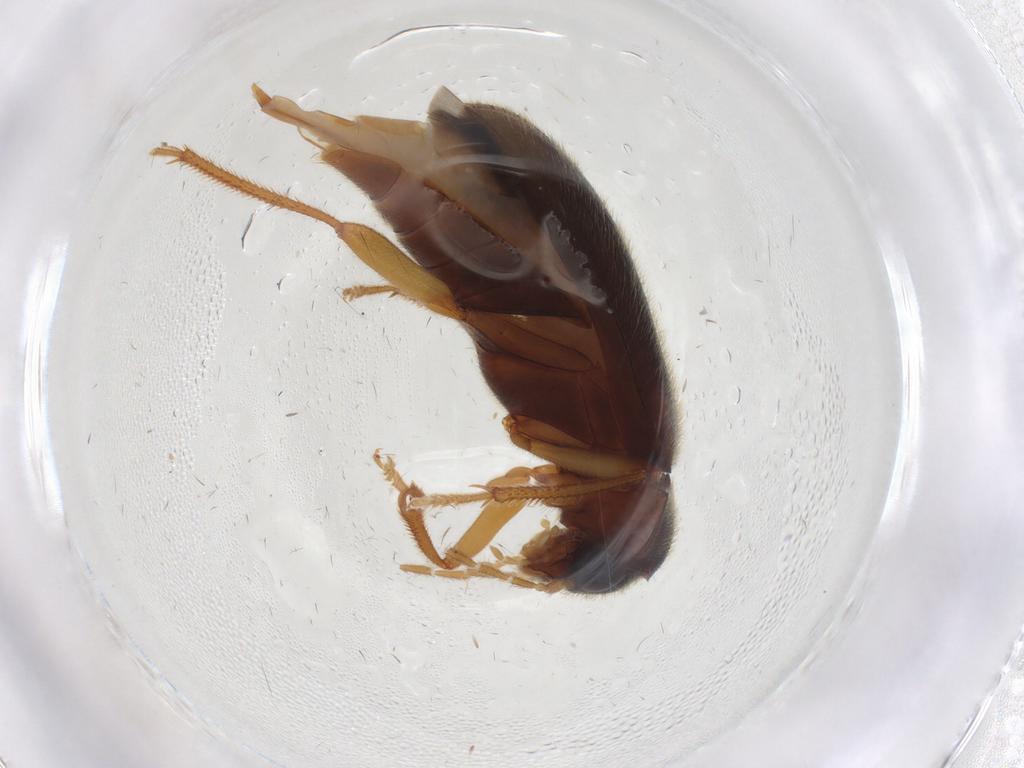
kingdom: Animalia
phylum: Arthropoda
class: Insecta
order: Coleoptera
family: Ptilodactylidae
